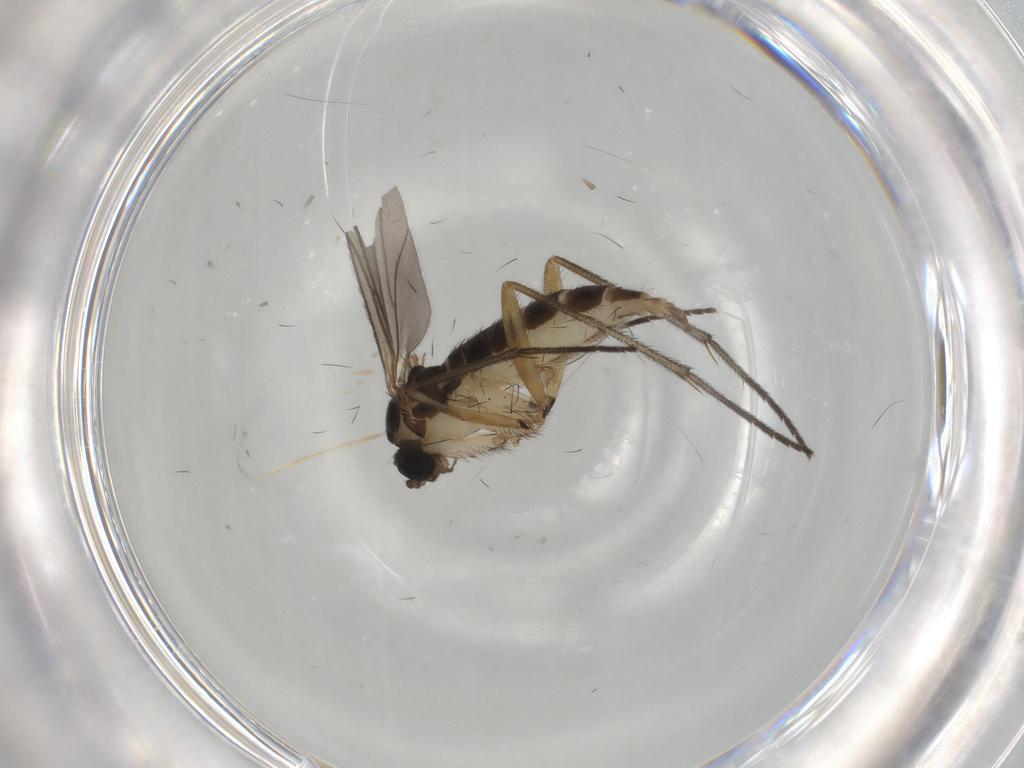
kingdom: Animalia
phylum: Arthropoda
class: Insecta
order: Diptera
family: Sciaridae
